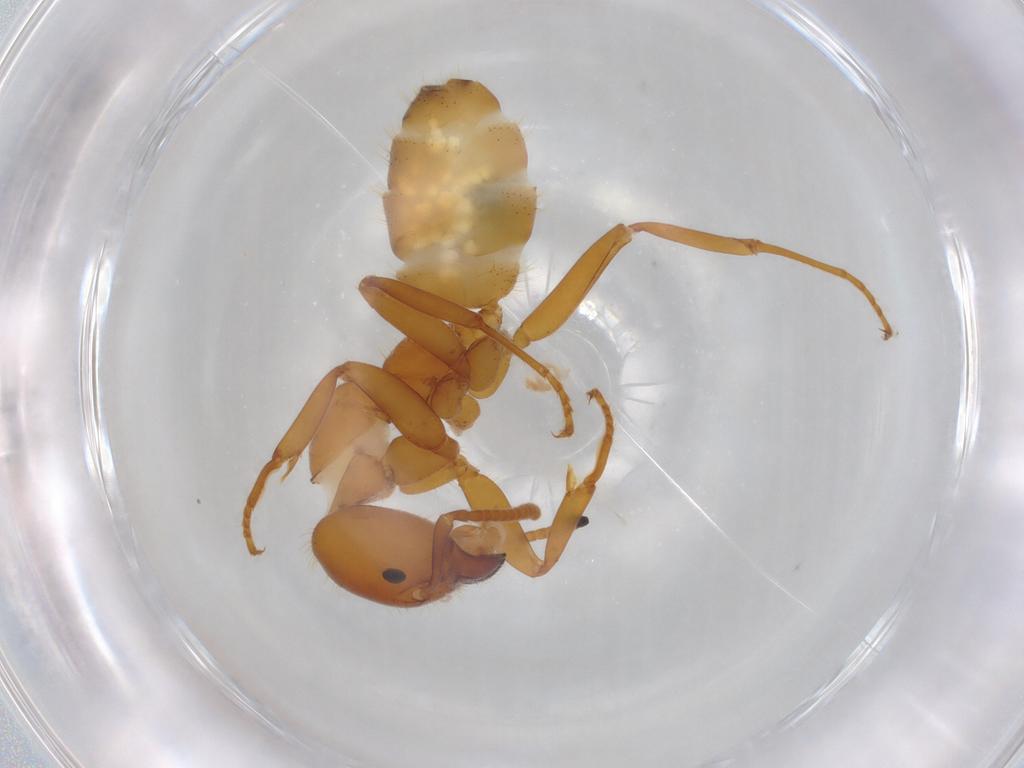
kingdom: Animalia
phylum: Arthropoda
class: Insecta
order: Hymenoptera
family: Formicidae
